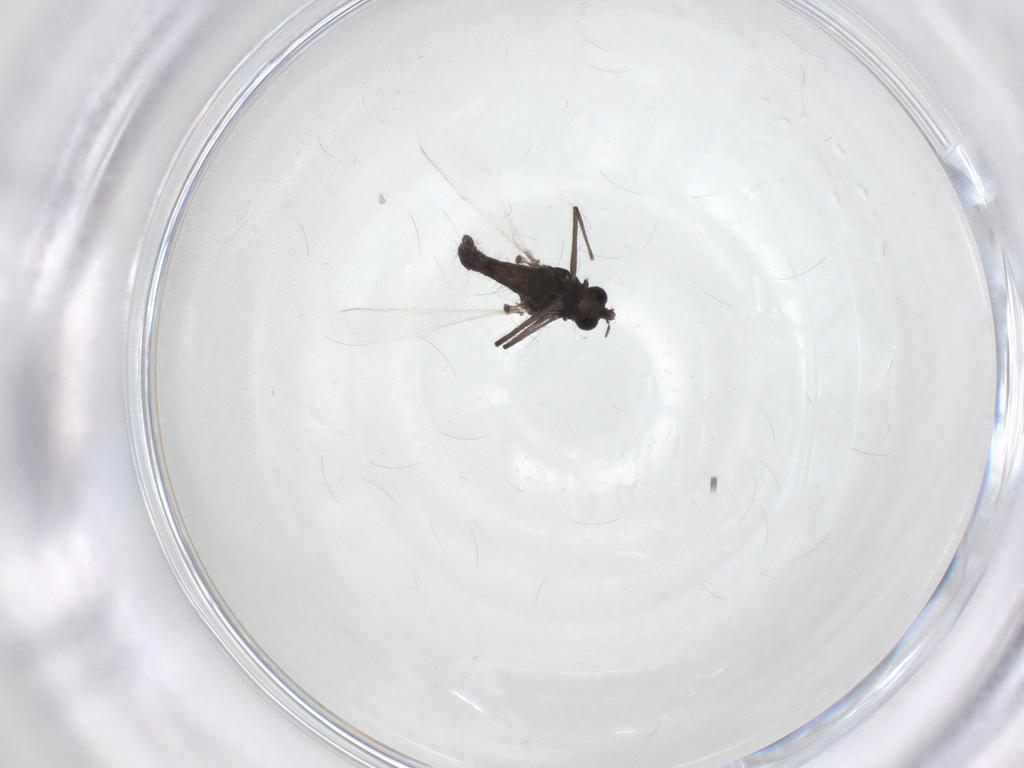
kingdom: Animalia
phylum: Arthropoda
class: Insecta
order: Diptera
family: Chironomidae
